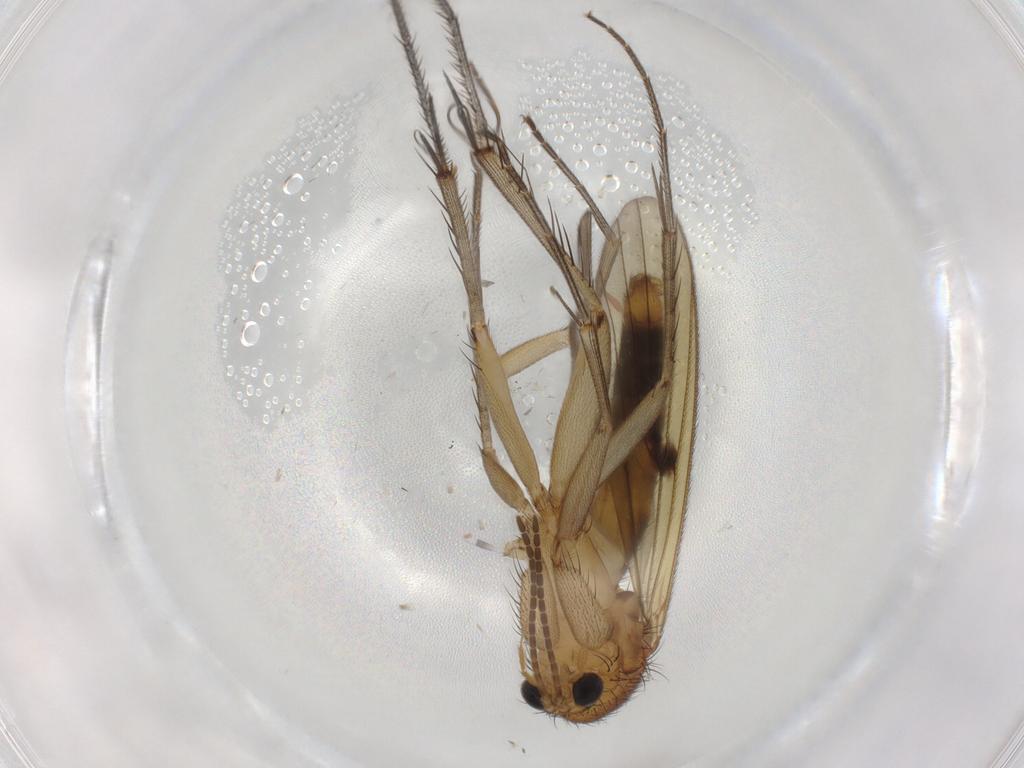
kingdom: Animalia
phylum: Arthropoda
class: Insecta
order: Diptera
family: Mycetophilidae
